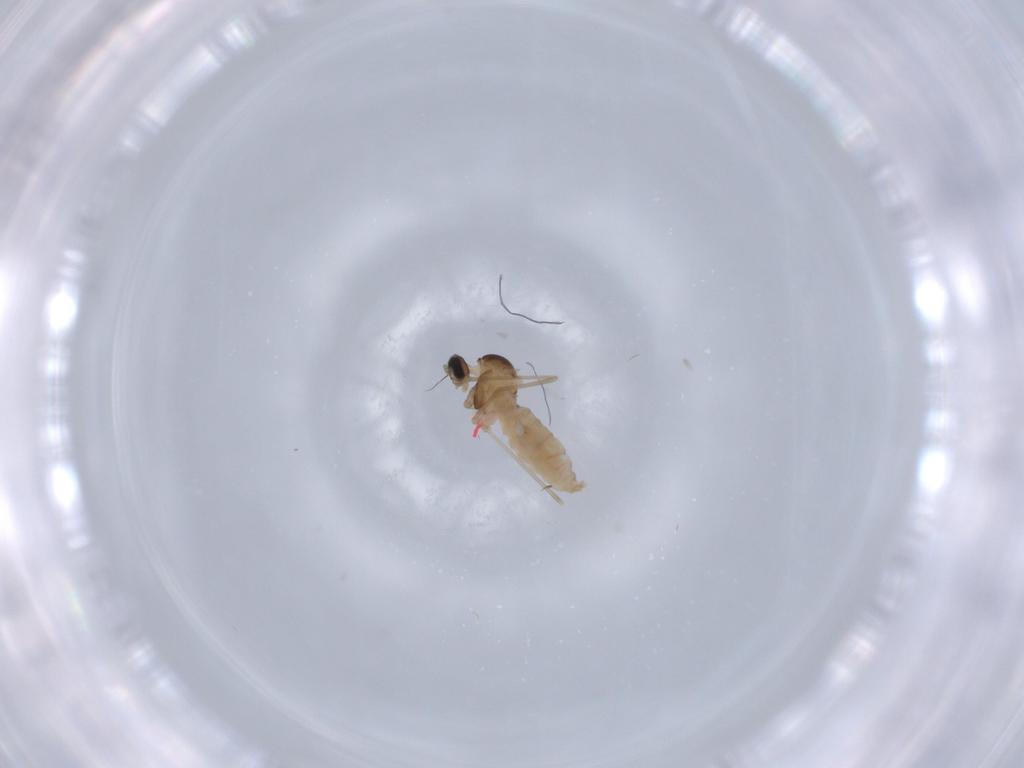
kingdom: Animalia
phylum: Arthropoda
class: Insecta
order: Diptera
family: Cecidomyiidae
